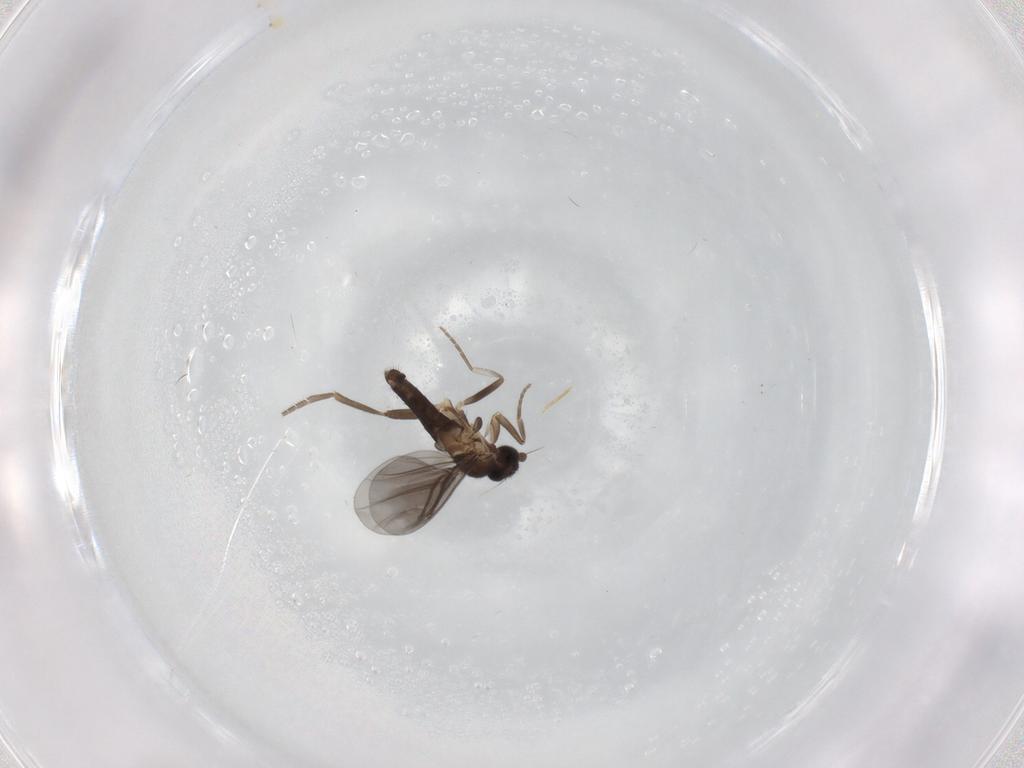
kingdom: Animalia
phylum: Arthropoda
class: Insecta
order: Diptera
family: Phoridae
